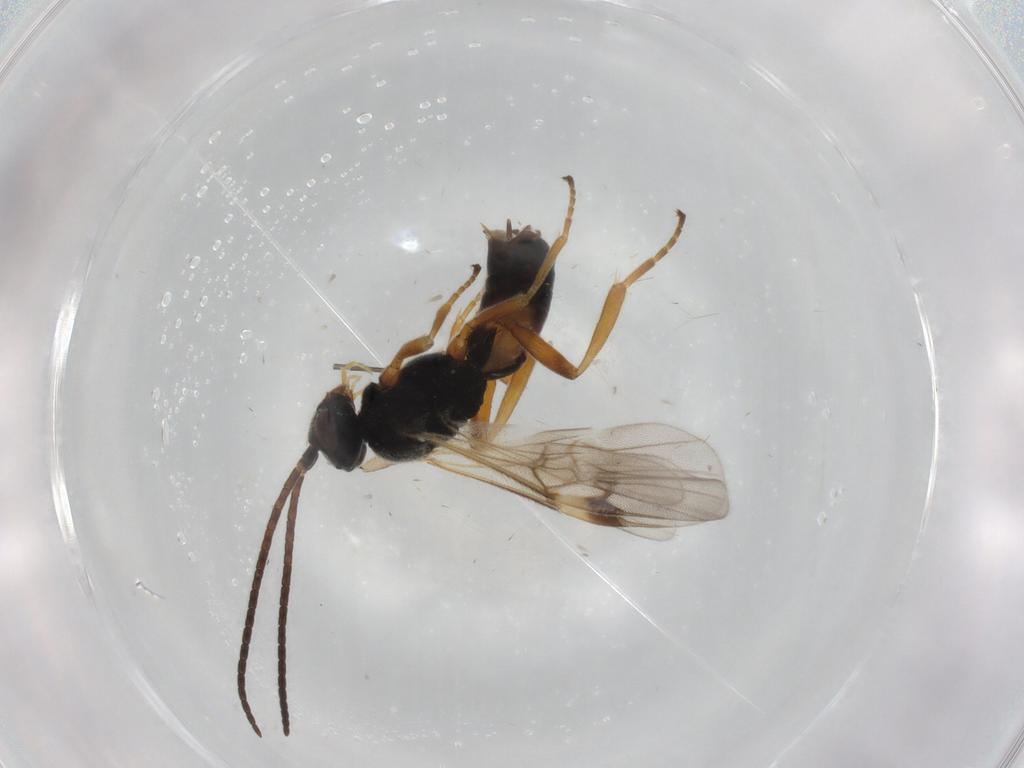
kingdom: Animalia
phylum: Arthropoda
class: Insecta
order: Hymenoptera
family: Braconidae
